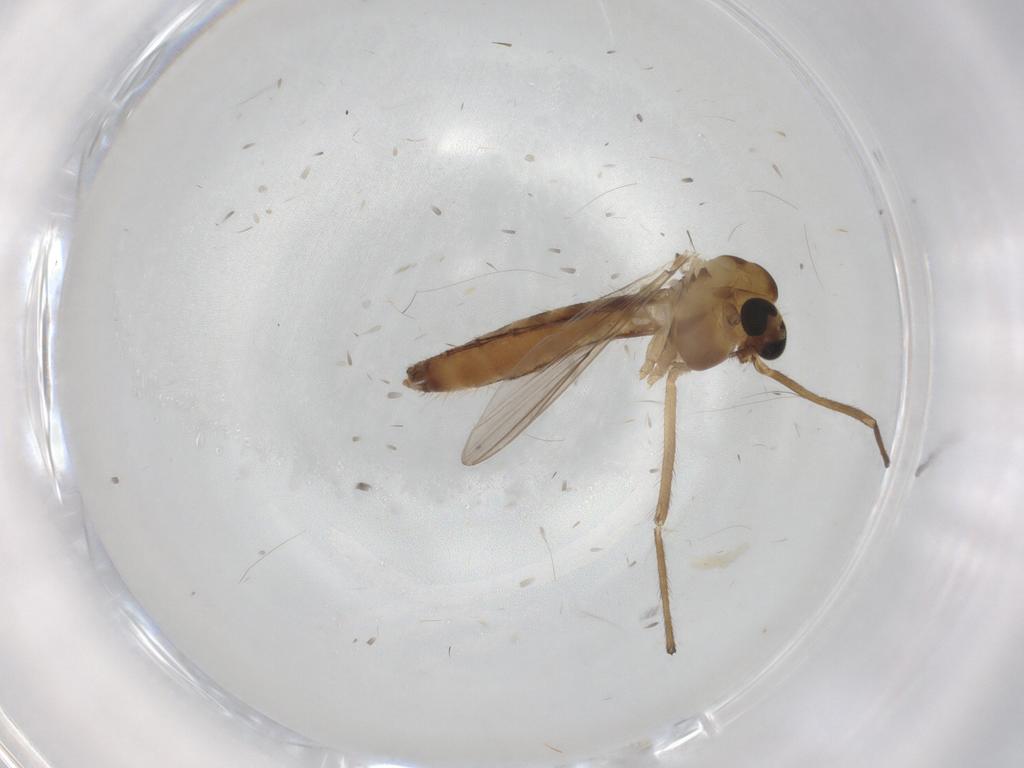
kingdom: Animalia
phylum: Arthropoda
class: Insecta
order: Diptera
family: Chironomidae
